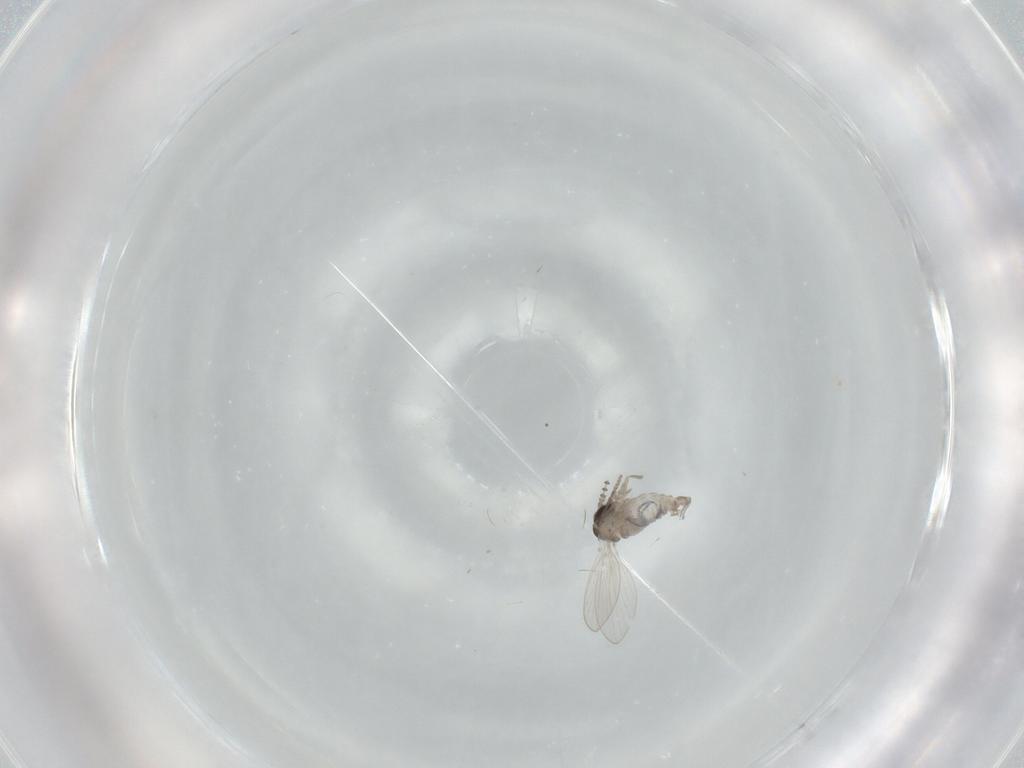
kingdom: Animalia
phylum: Arthropoda
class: Insecta
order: Diptera
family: Psychodidae
